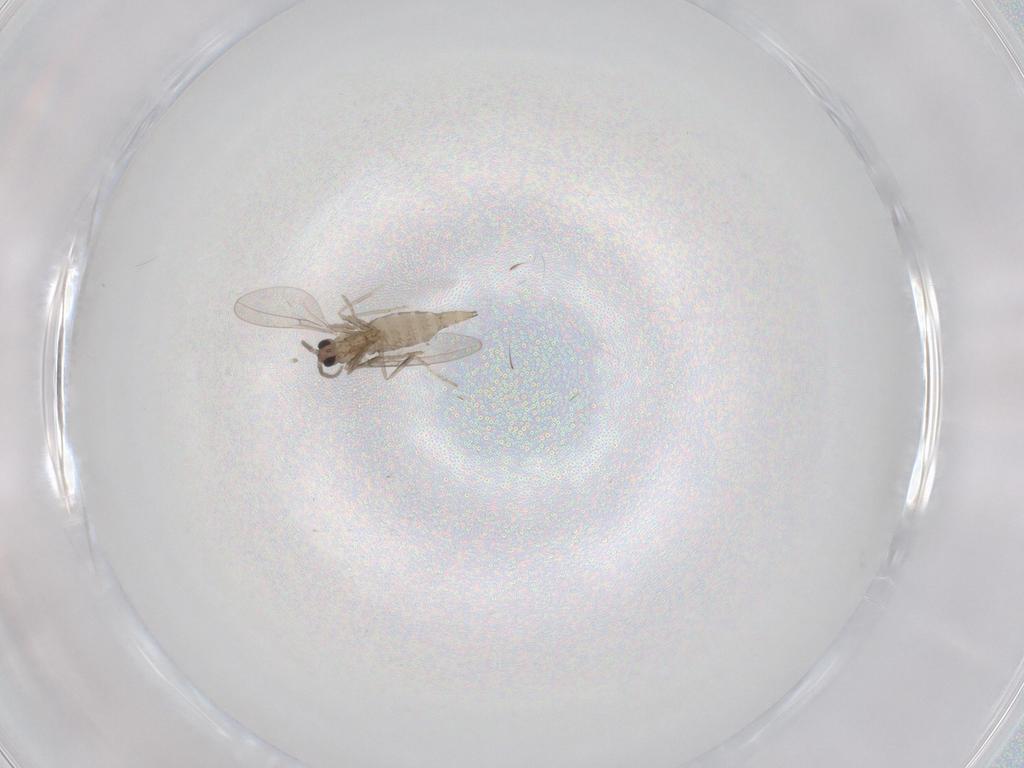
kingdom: Animalia
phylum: Arthropoda
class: Insecta
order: Diptera
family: Cecidomyiidae
